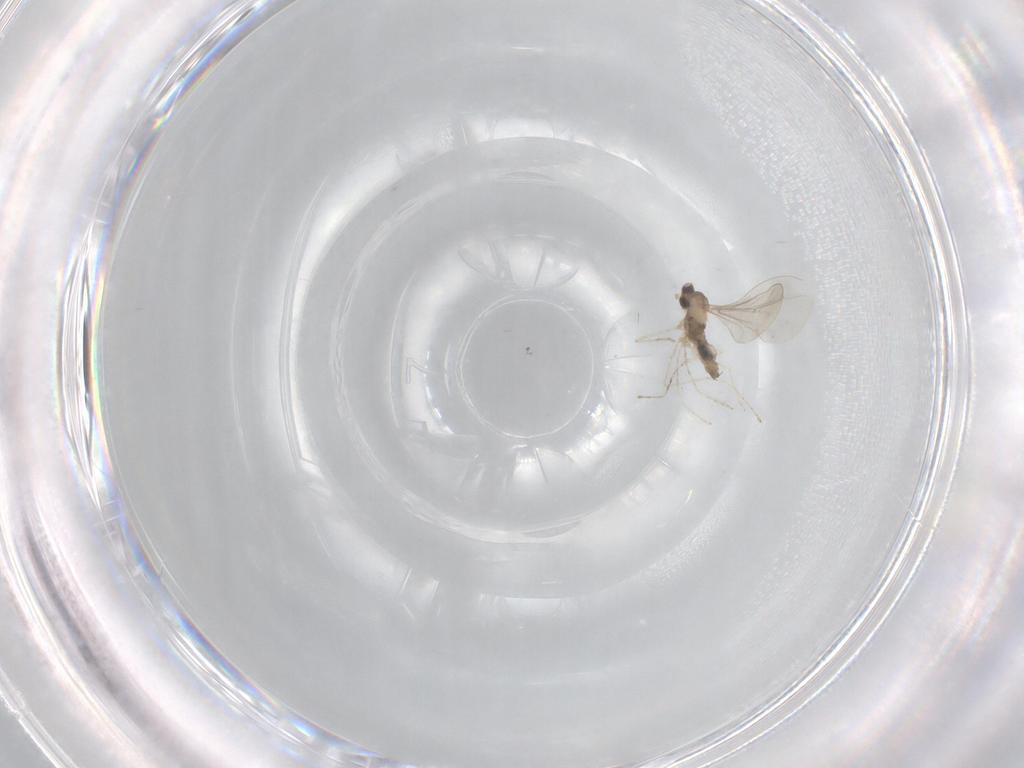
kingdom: Animalia
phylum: Arthropoda
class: Insecta
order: Diptera
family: Cecidomyiidae
